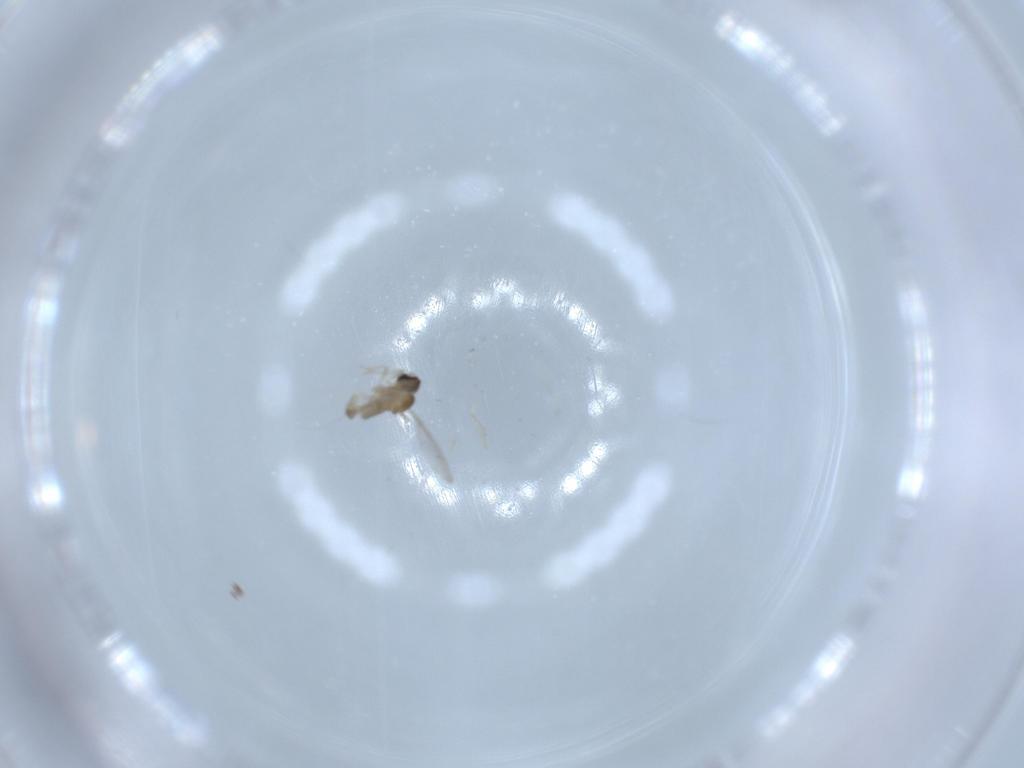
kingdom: Animalia
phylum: Arthropoda
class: Insecta
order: Diptera
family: Cecidomyiidae
